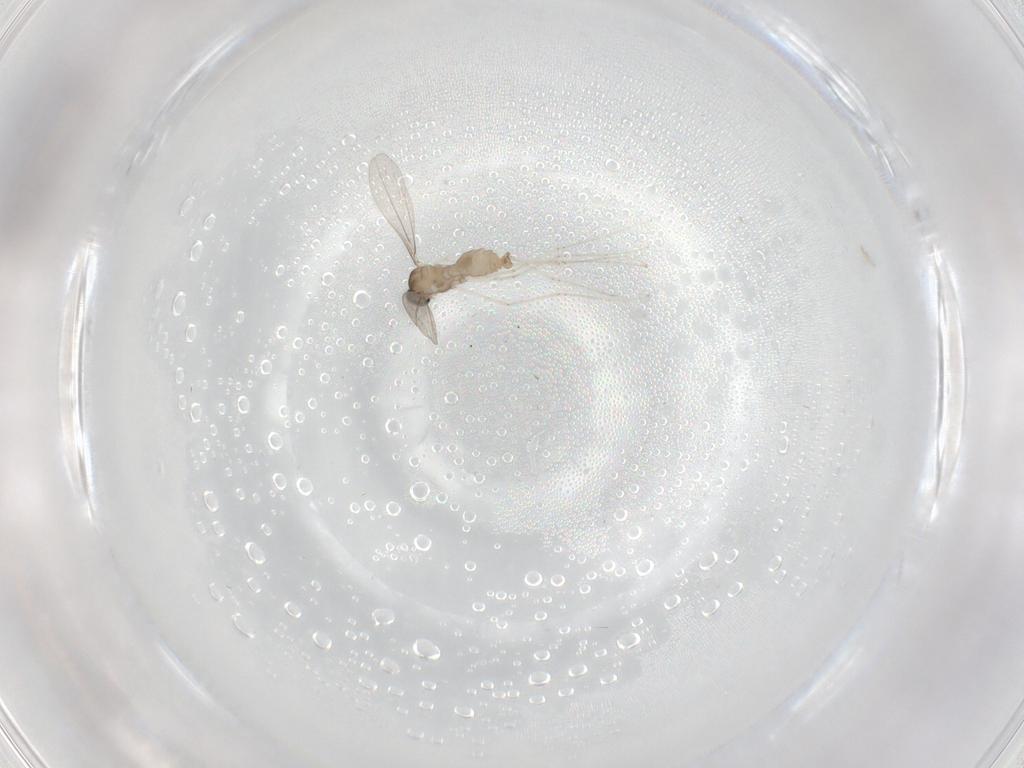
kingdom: Animalia
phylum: Arthropoda
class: Insecta
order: Diptera
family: Cecidomyiidae
